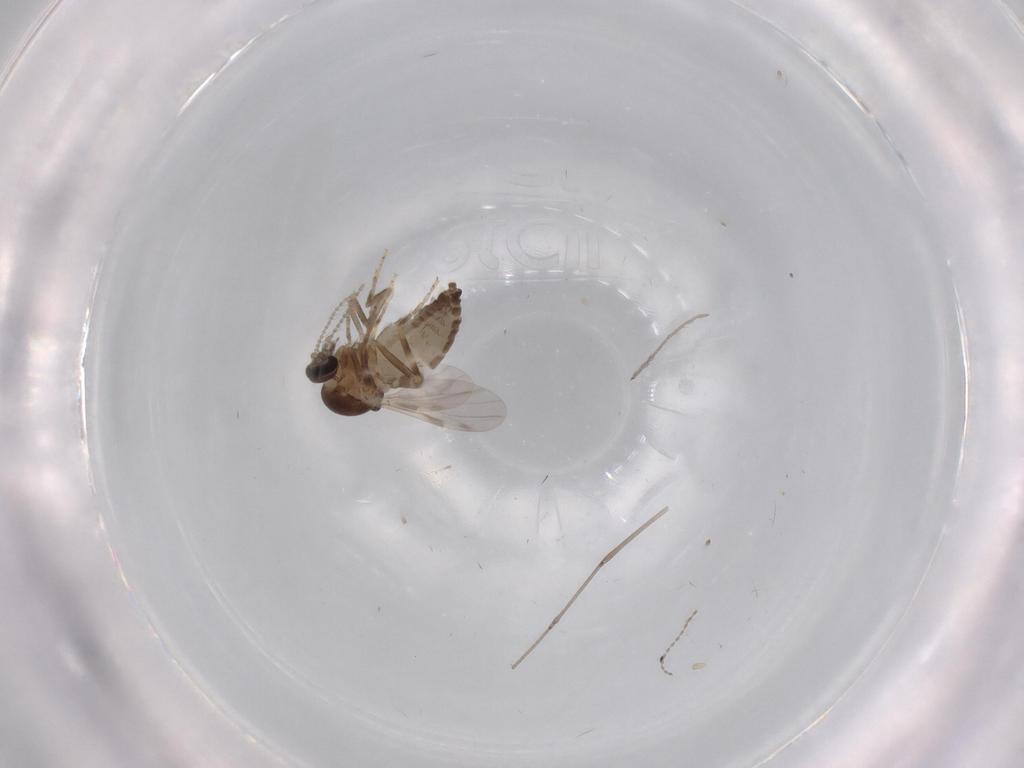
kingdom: Animalia
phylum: Arthropoda
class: Insecta
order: Diptera
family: Ceratopogonidae
